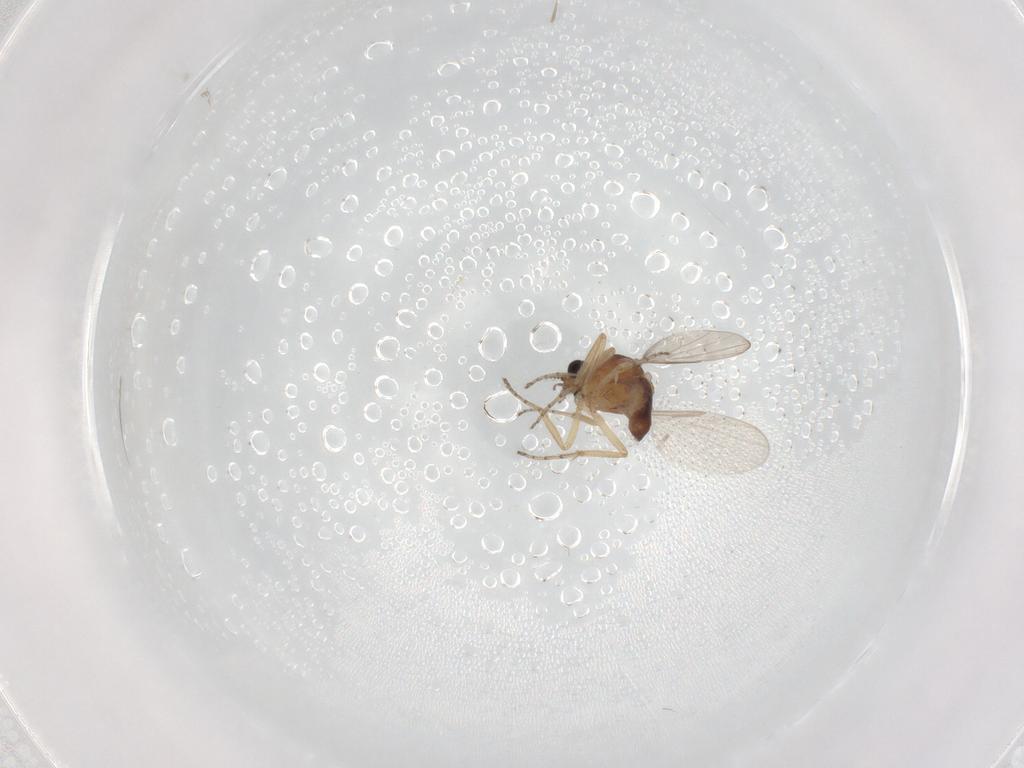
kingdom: Animalia
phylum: Arthropoda
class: Insecta
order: Diptera
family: Ceratopogonidae
